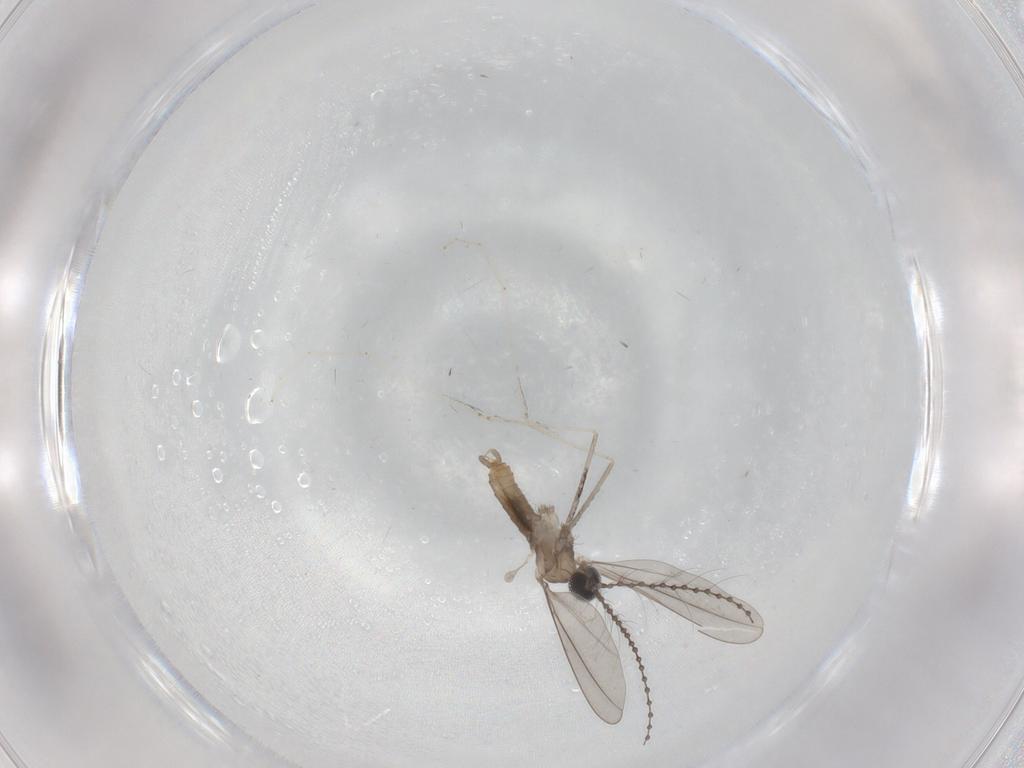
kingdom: Animalia
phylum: Arthropoda
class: Insecta
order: Diptera
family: Cecidomyiidae
